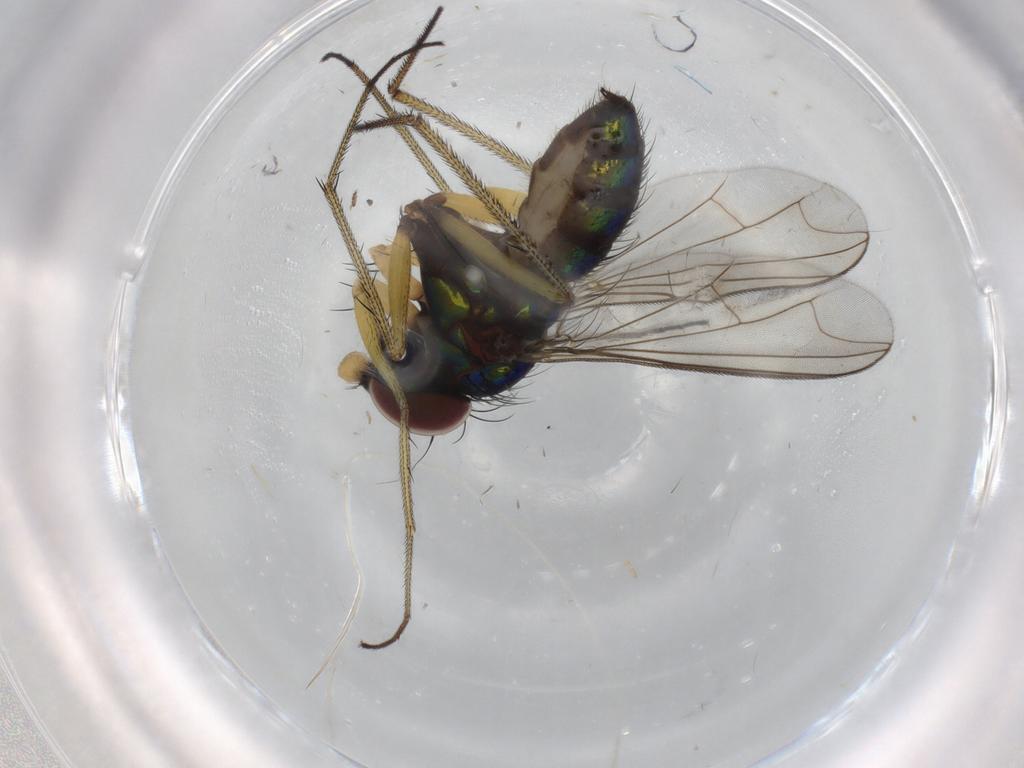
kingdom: Animalia
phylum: Arthropoda
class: Insecta
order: Diptera
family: Dolichopodidae
